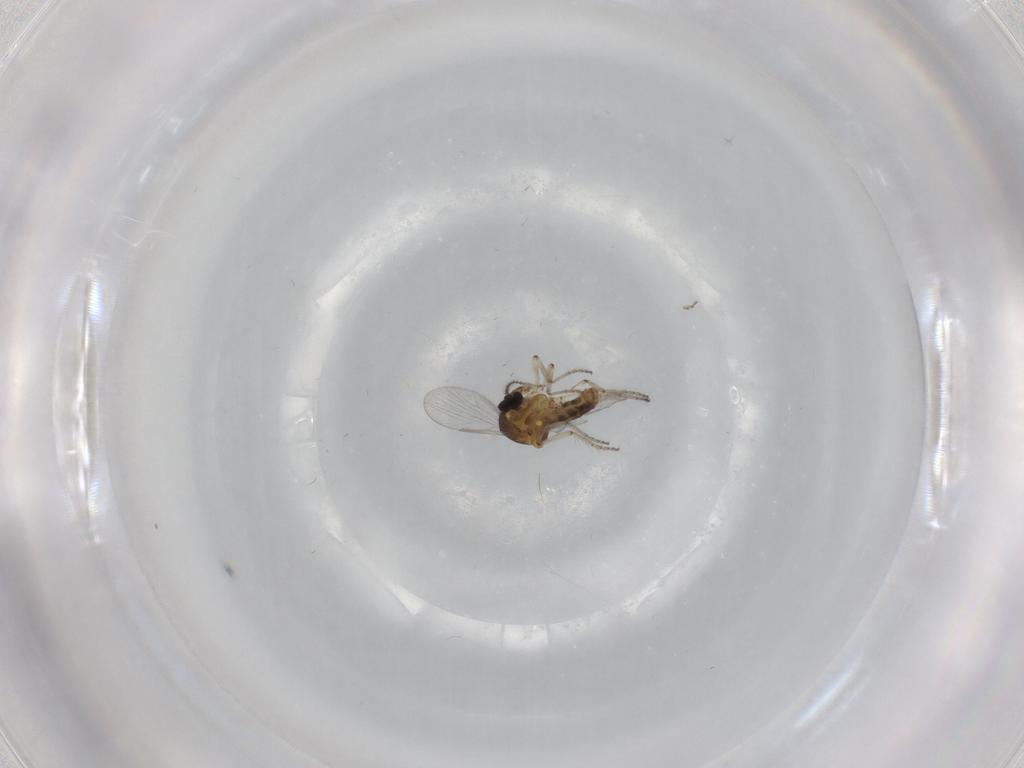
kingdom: Animalia
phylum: Arthropoda
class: Insecta
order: Diptera
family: Ceratopogonidae
